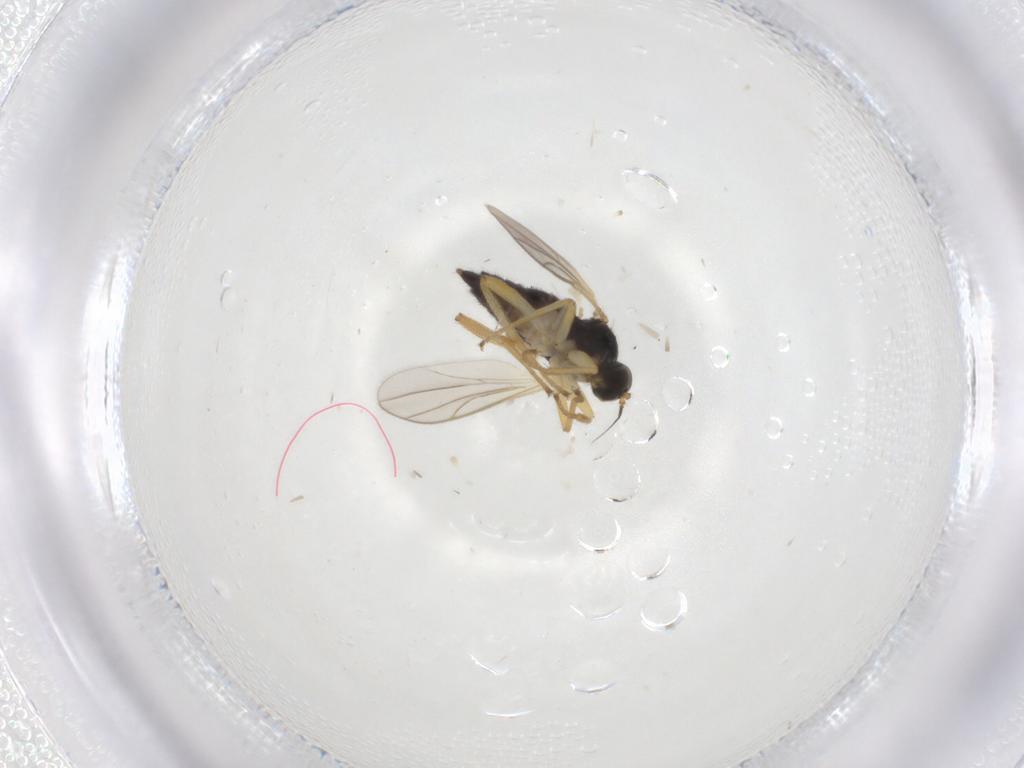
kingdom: Animalia
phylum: Arthropoda
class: Insecta
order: Diptera
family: Hybotidae
